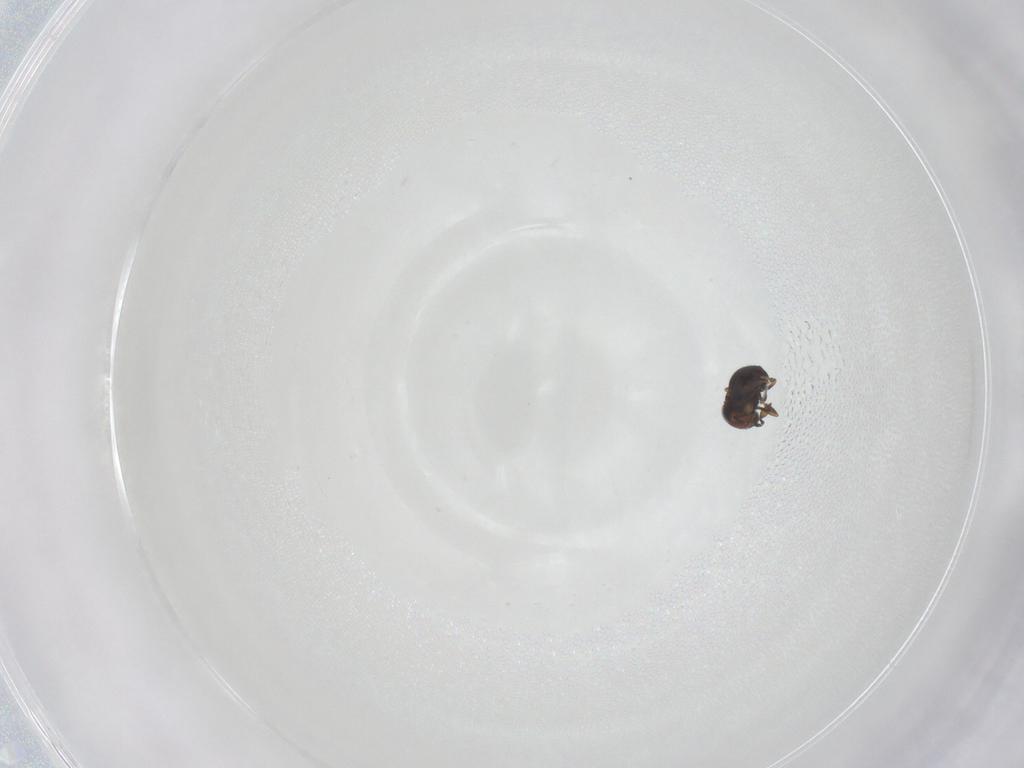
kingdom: Animalia
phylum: Arthropoda
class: Insecta
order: Hymenoptera
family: Scelionidae
